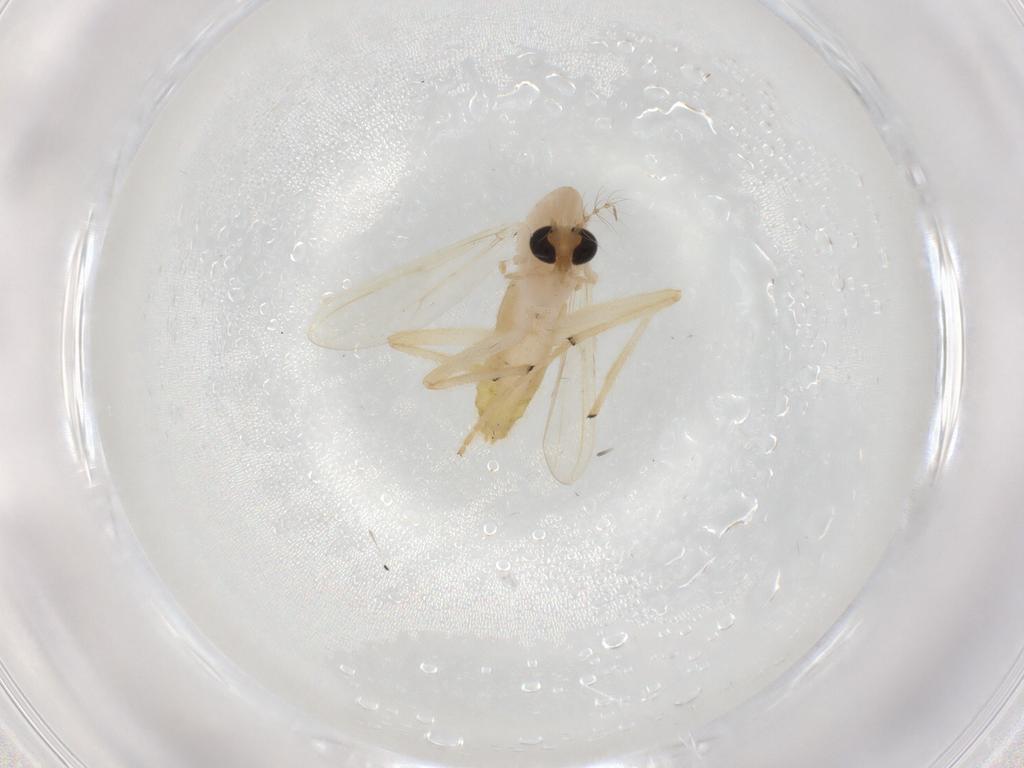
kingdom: Animalia
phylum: Arthropoda
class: Insecta
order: Diptera
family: Chironomidae
